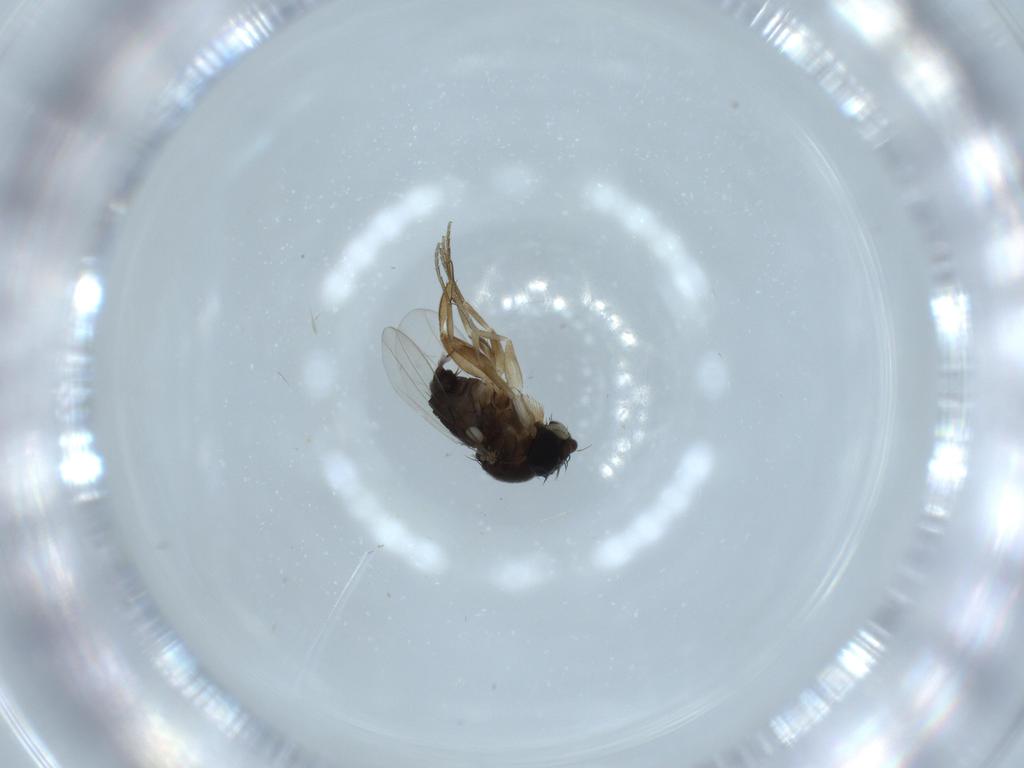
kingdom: Animalia
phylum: Arthropoda
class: Insecta
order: Diptera
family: Phoridae
